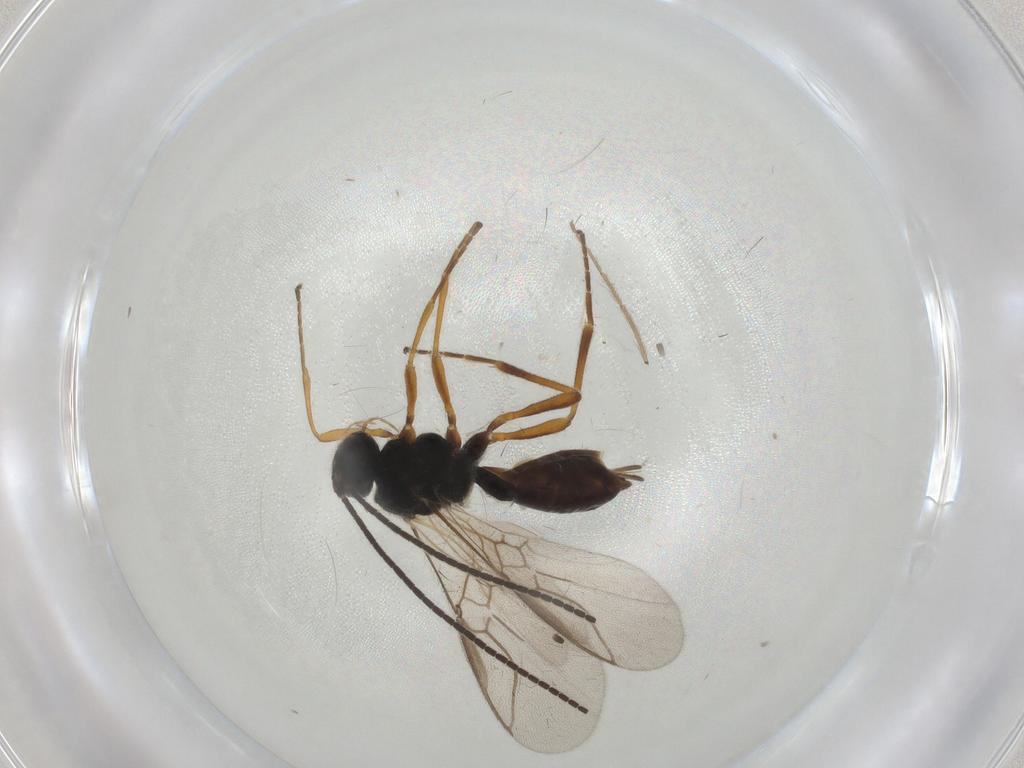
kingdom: Animalia
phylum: Arthropoda
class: Insecta
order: Hymenoptera
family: Braconidae
